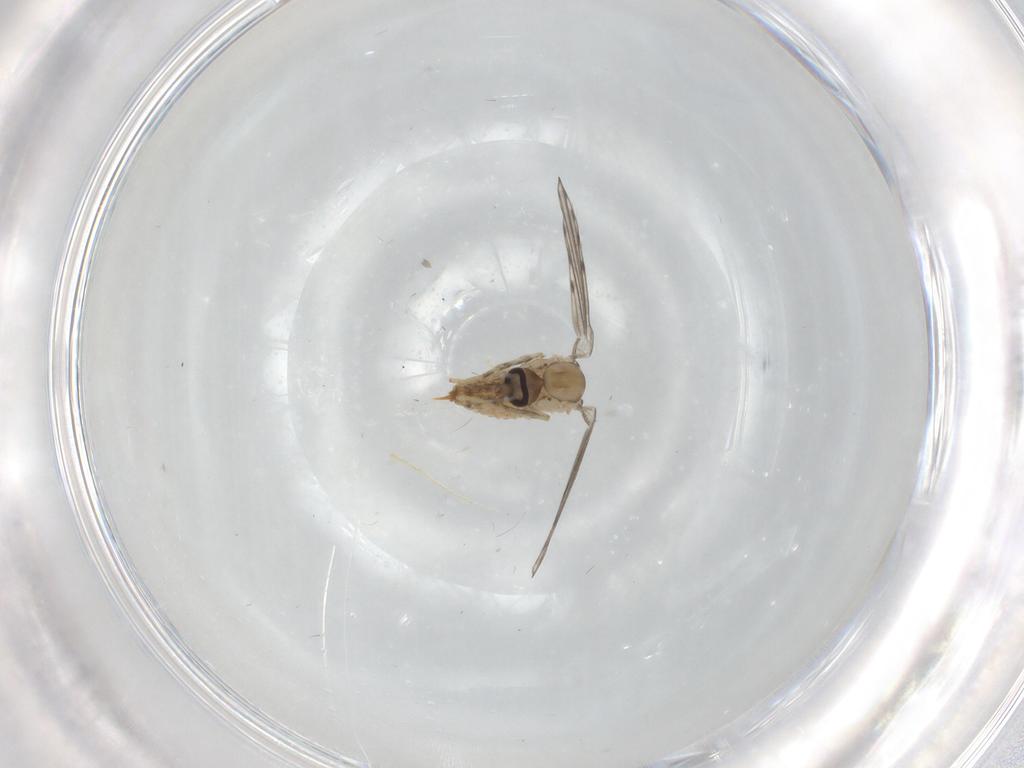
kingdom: Animalia
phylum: Arthropoda
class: Insecta
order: Diptera
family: Psychodidae
